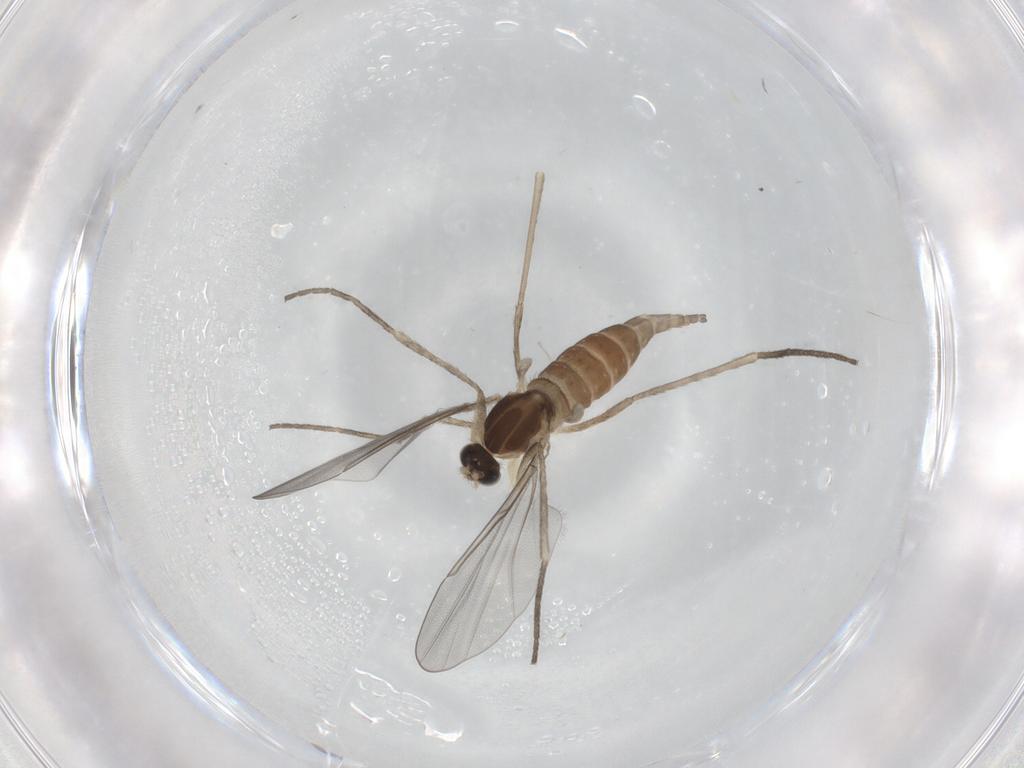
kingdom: Animalia
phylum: Arthropoda
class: Insecta
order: Diptera
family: Cecidomyiidae
